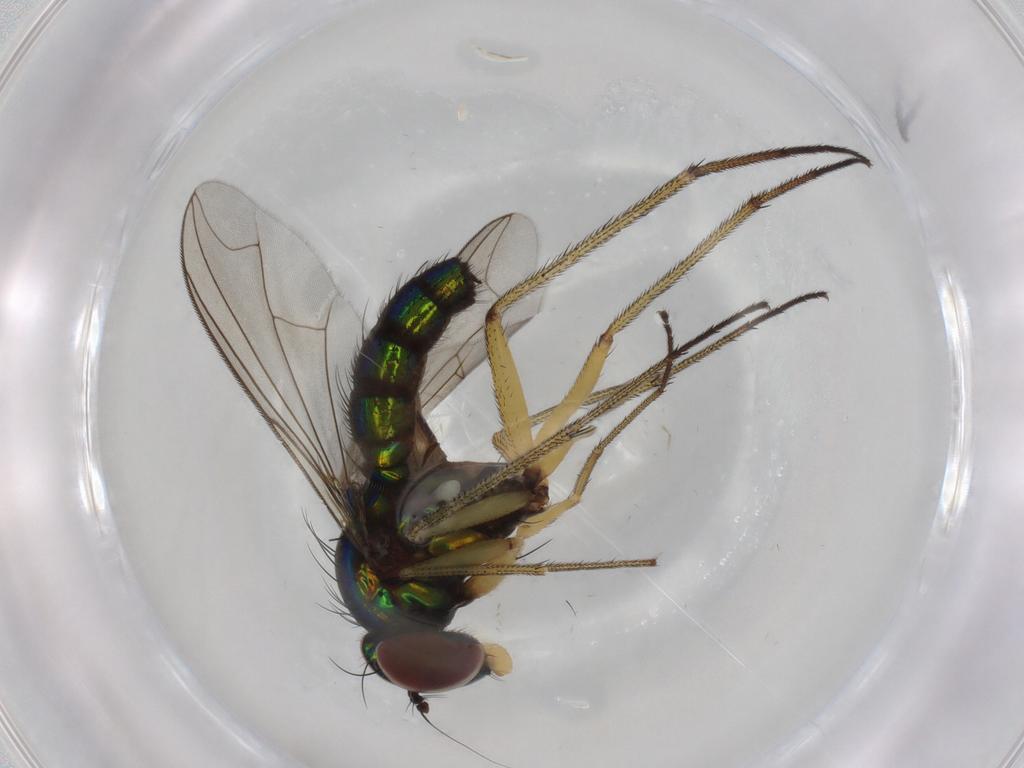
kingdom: Animalia
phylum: Arthropoda
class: Insecta
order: Diptera
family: Dolichopodidae
